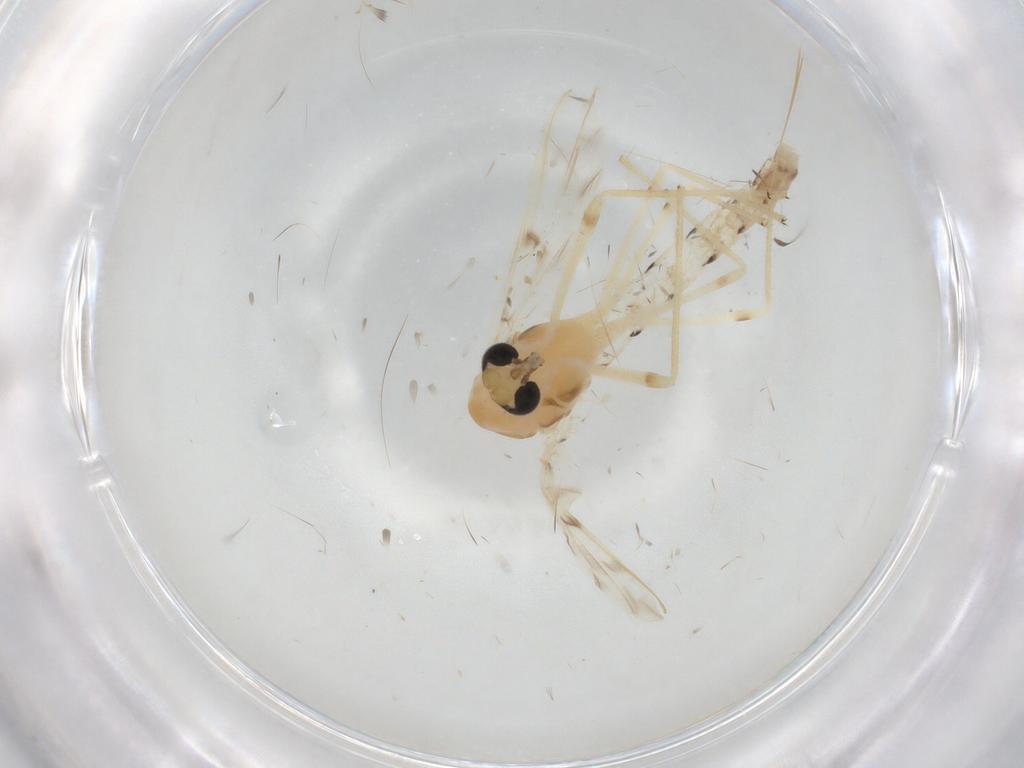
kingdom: Animalia
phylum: Arthropoda
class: Insecta
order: Diptera
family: Chironomidae
